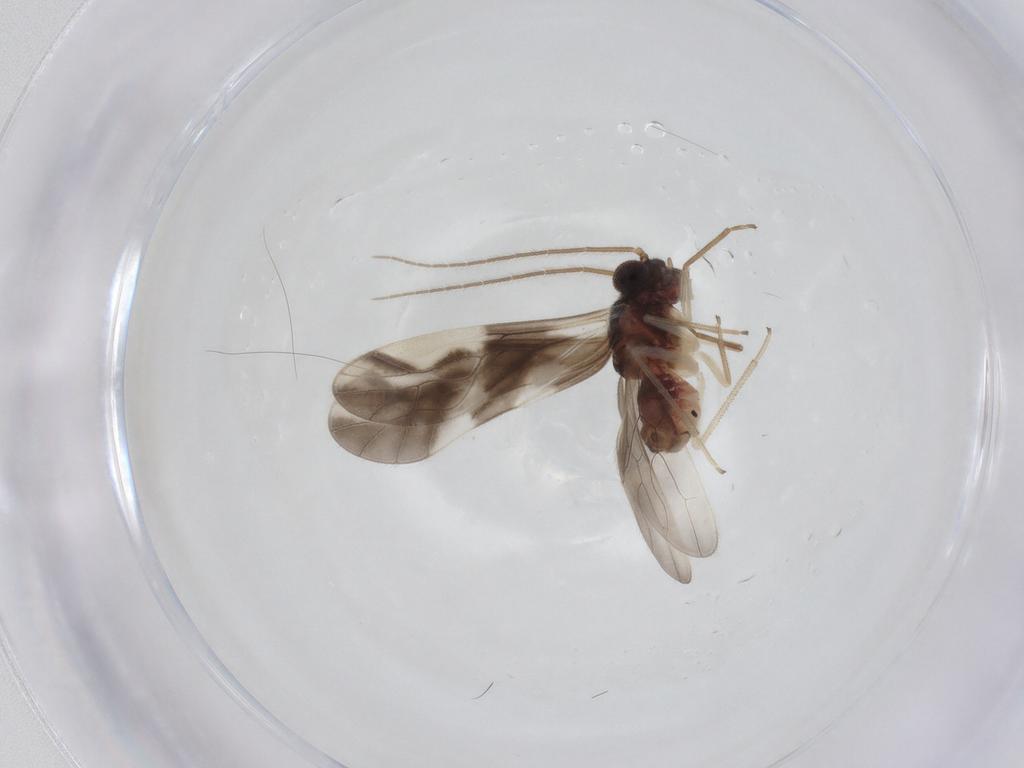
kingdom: Animalia
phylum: Arthropoda
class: Insecta
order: Psocodea
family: Caeciliusidae
